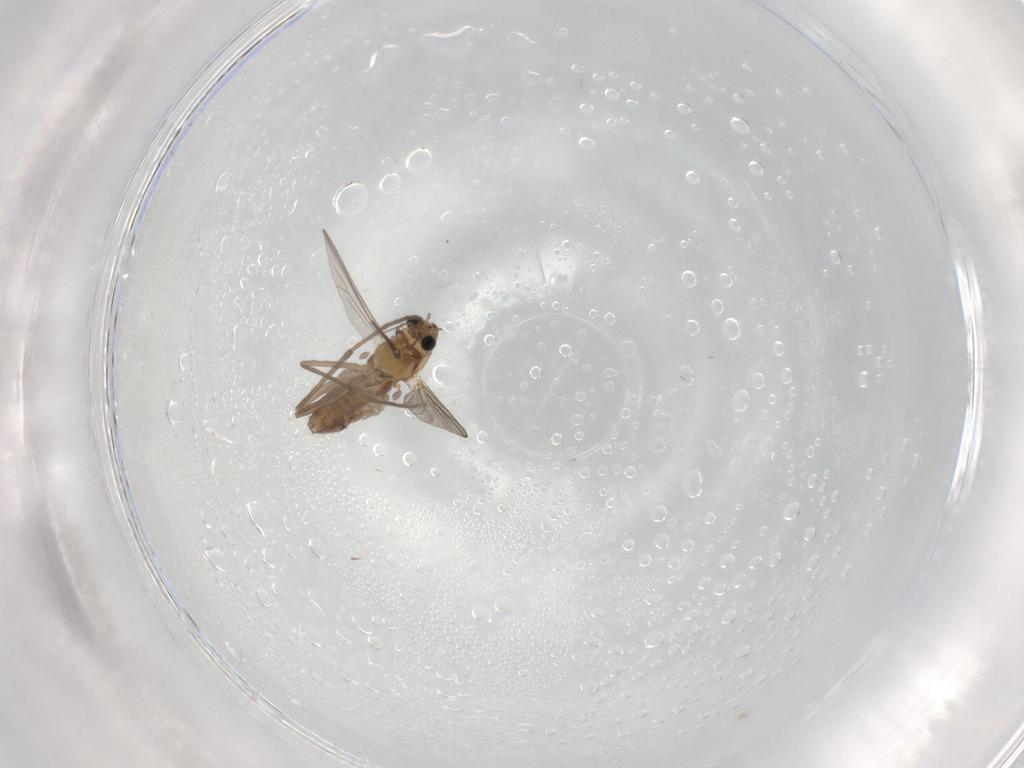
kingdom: Animalia
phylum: Arthropoda
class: Insecta
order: Diptera
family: Chironomidae
